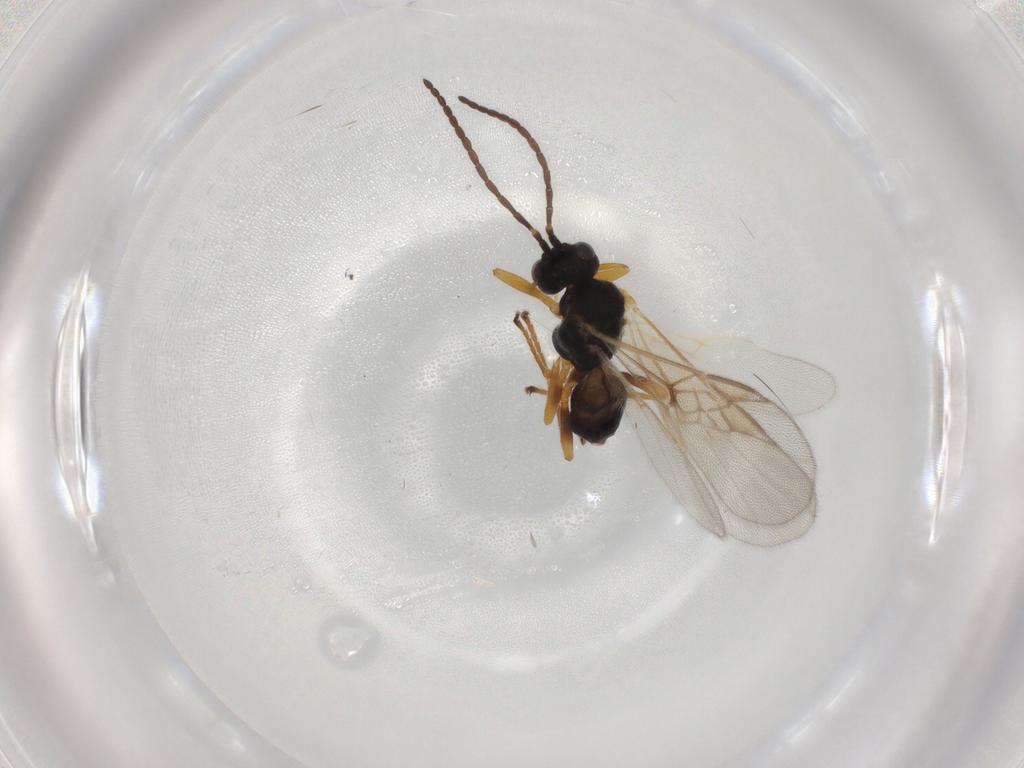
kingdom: Animalia
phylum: Arthropoda
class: Insecta
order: Hymenoptera
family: Braconidae
